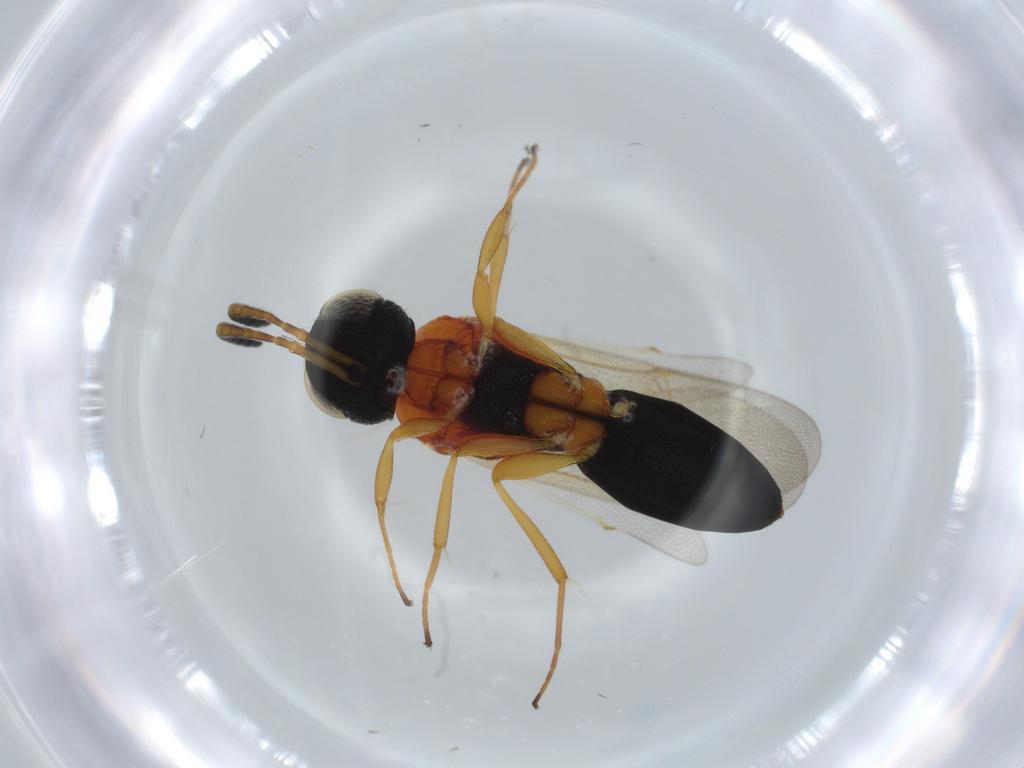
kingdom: Animalia
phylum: Arthropoda
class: Insecta
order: Hymenoptera
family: Scelionidae
